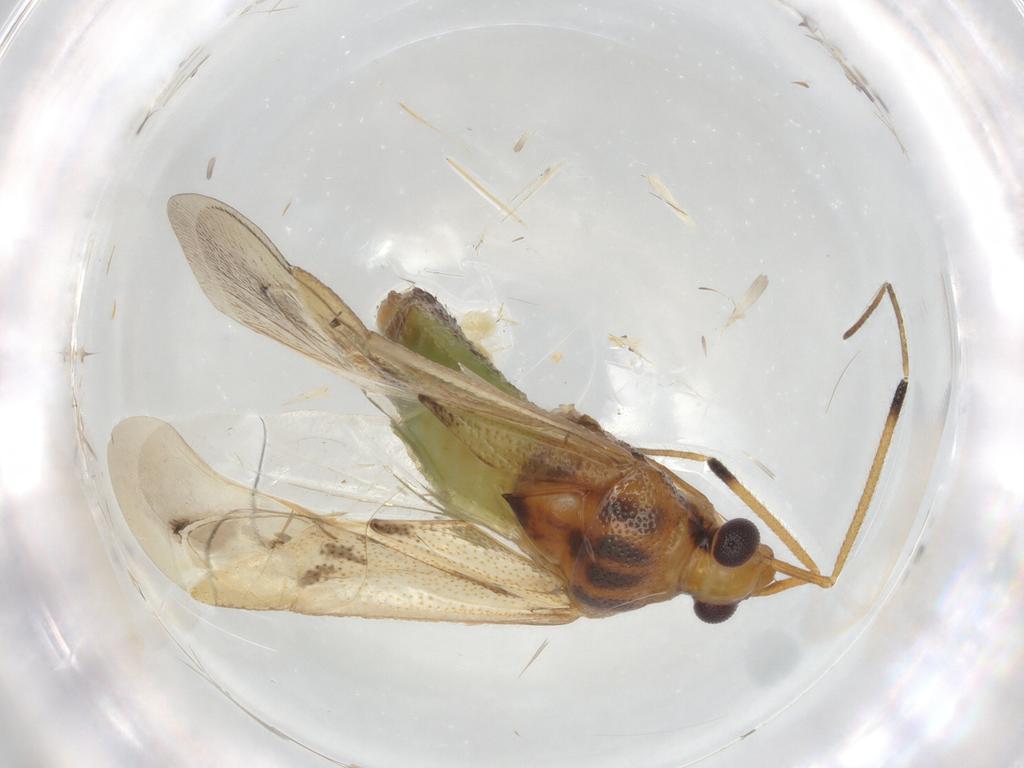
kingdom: Animalia
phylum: Arthropoda
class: Insecta
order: Hemiptera
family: Miridae
